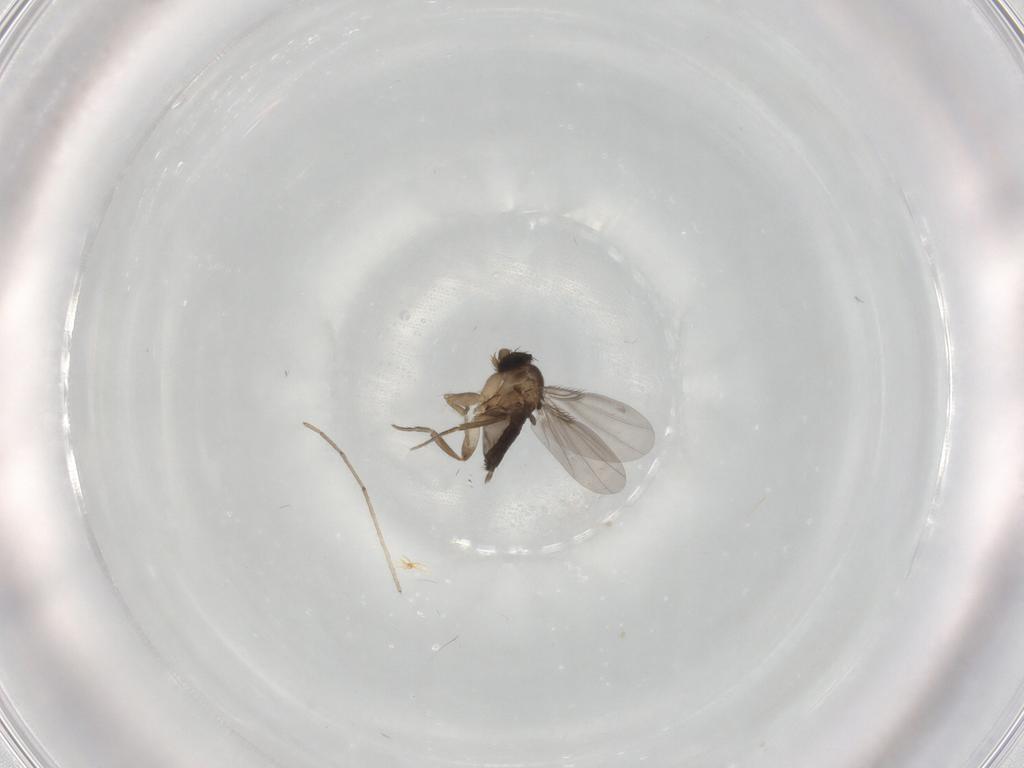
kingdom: Animalia
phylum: Arthropoda
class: Insecta
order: Diptera
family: Phoridae
